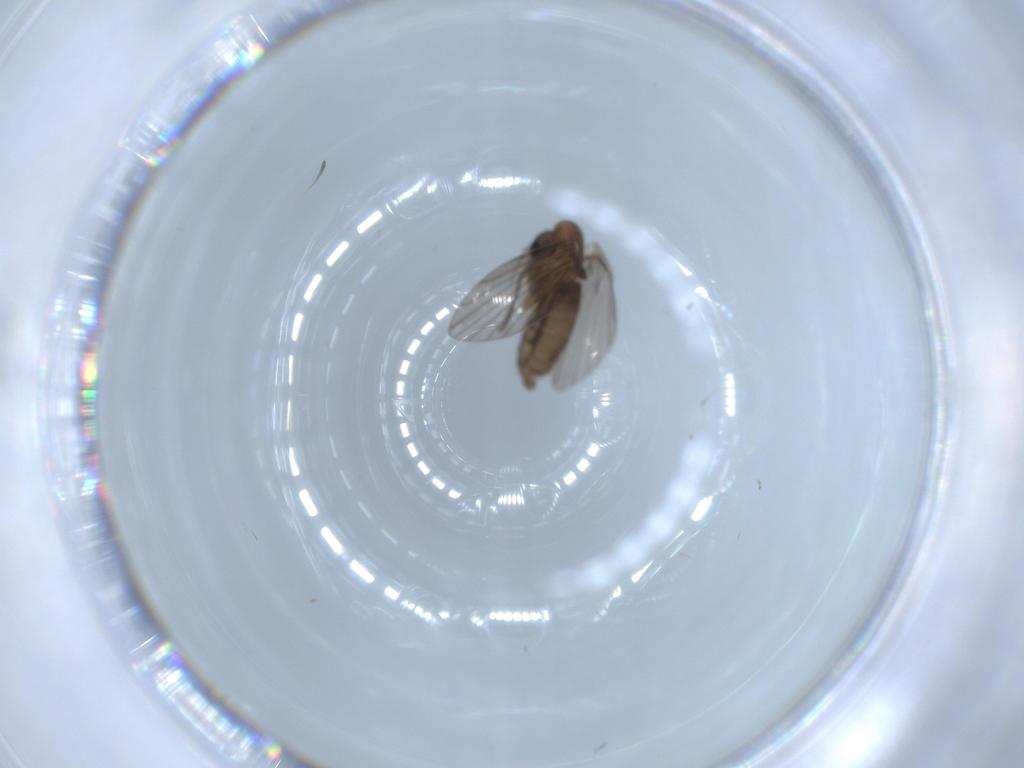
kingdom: Animalia
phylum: Arthropoda
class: Insecta
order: Diptera
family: Psychodidae
